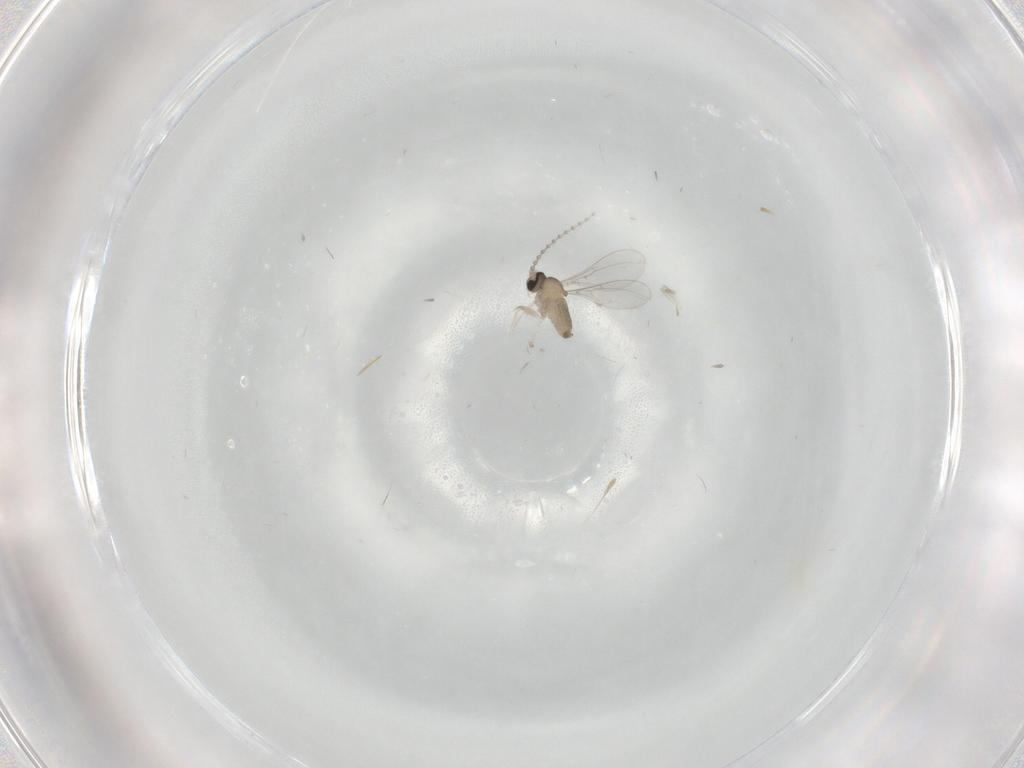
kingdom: Animalia
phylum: Arthropoda
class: Insecta
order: Diptera
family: Cecidomyiidae
